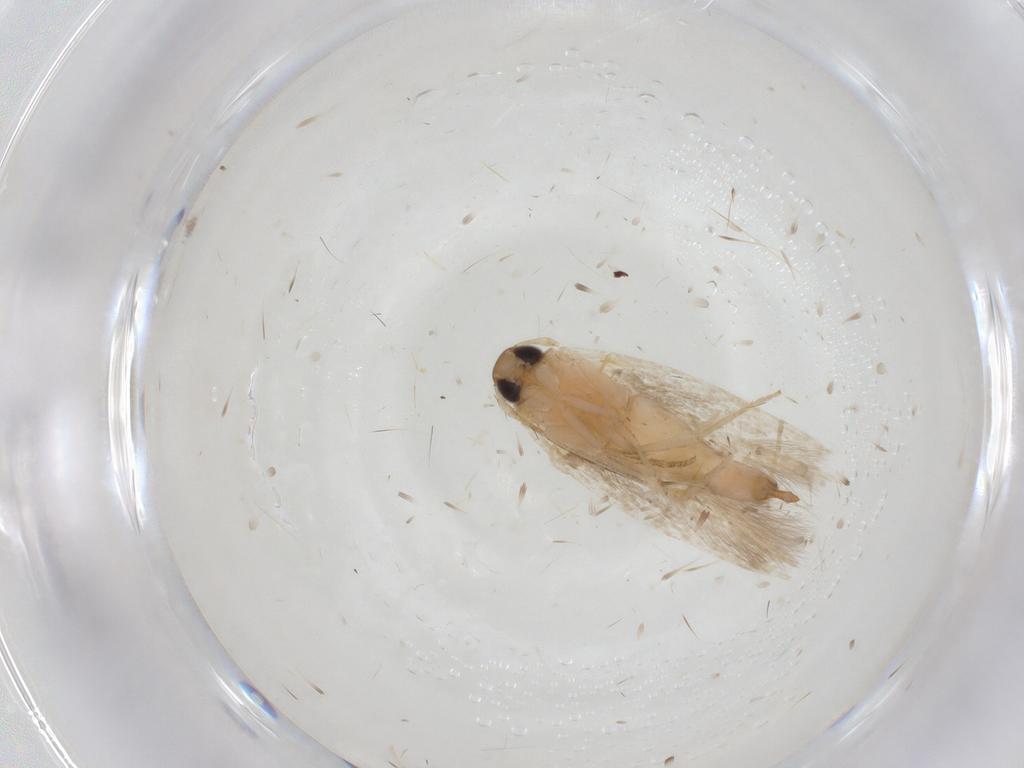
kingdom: Animalia
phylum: Arthropoda
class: Insecta
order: Lepidoptera
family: Cosmopterigidae
